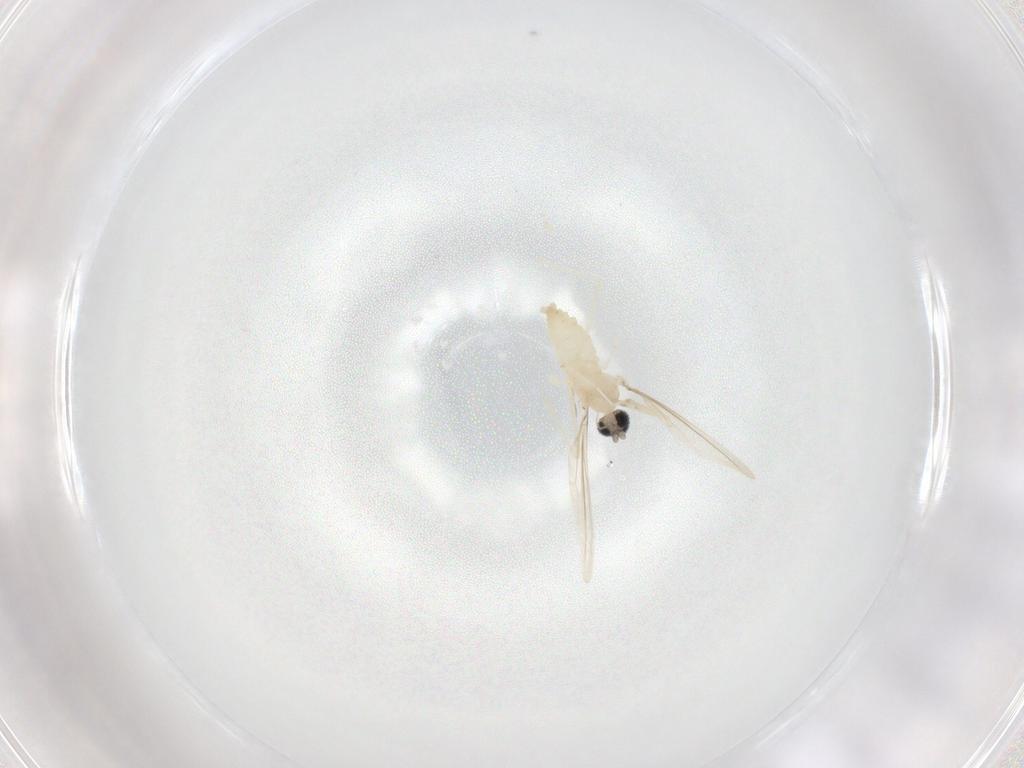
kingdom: Animalia
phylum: Arthropoda
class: Insecta
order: Diptera
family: Cecidomyiidae
